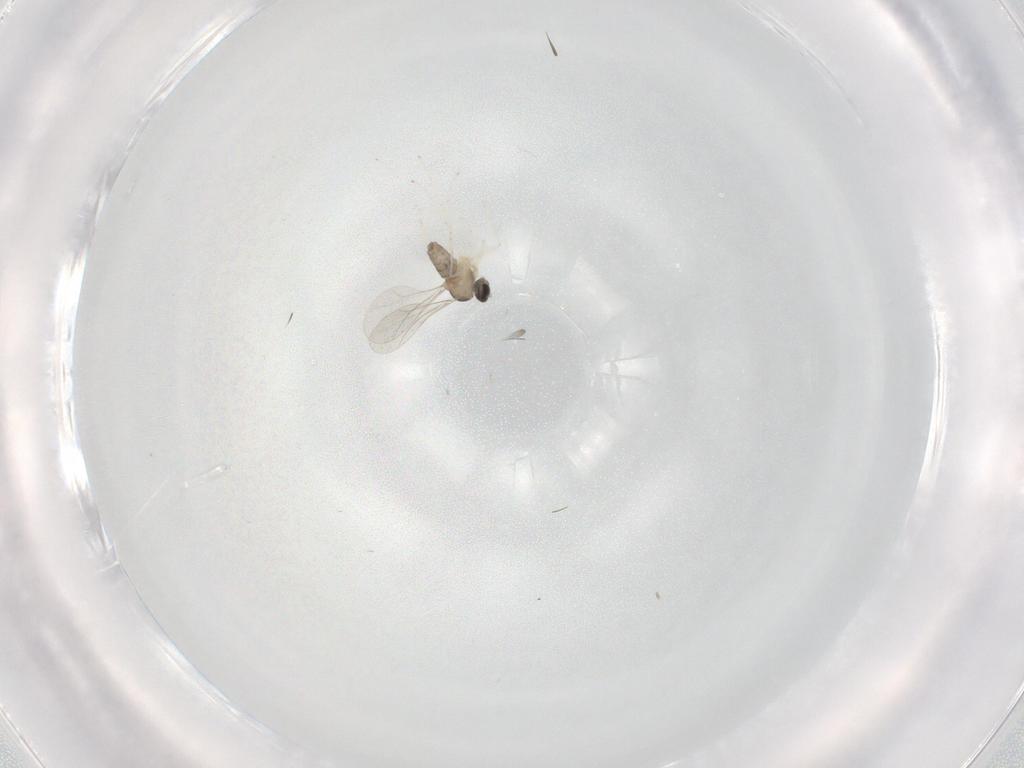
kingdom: Animalia
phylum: Arthropoda
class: Insecta
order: Diptera
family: Cecidomyiidae
